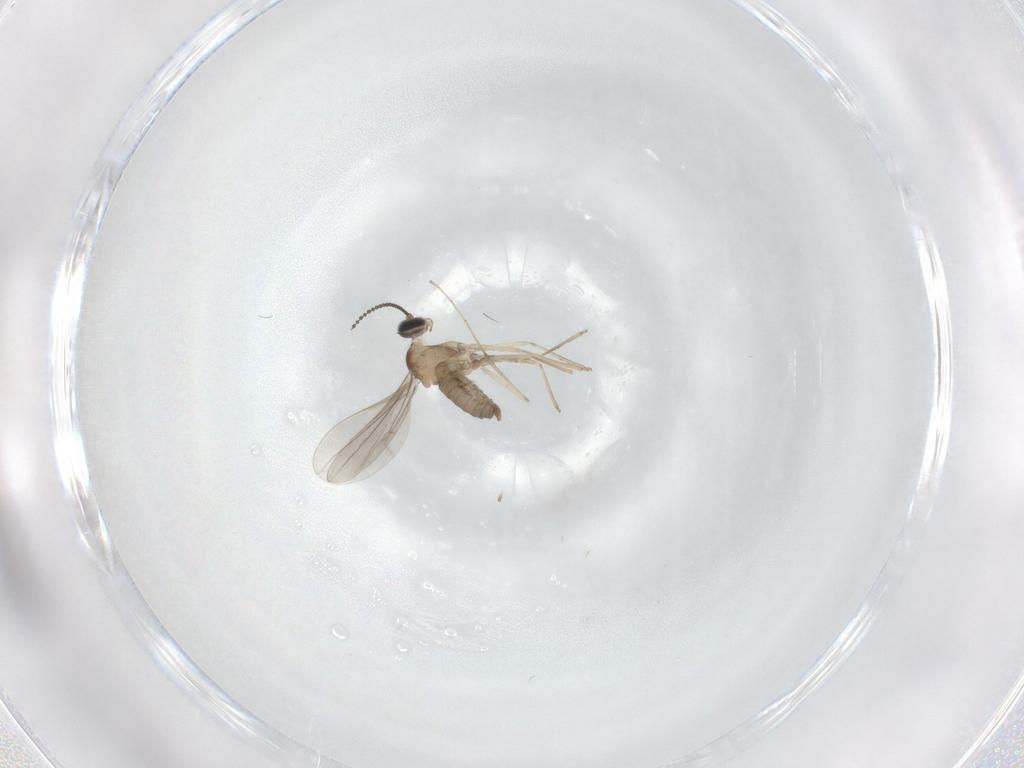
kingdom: Animalia
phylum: Arthropoda
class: Insecta
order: Diptera
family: Cecidomyiidae
